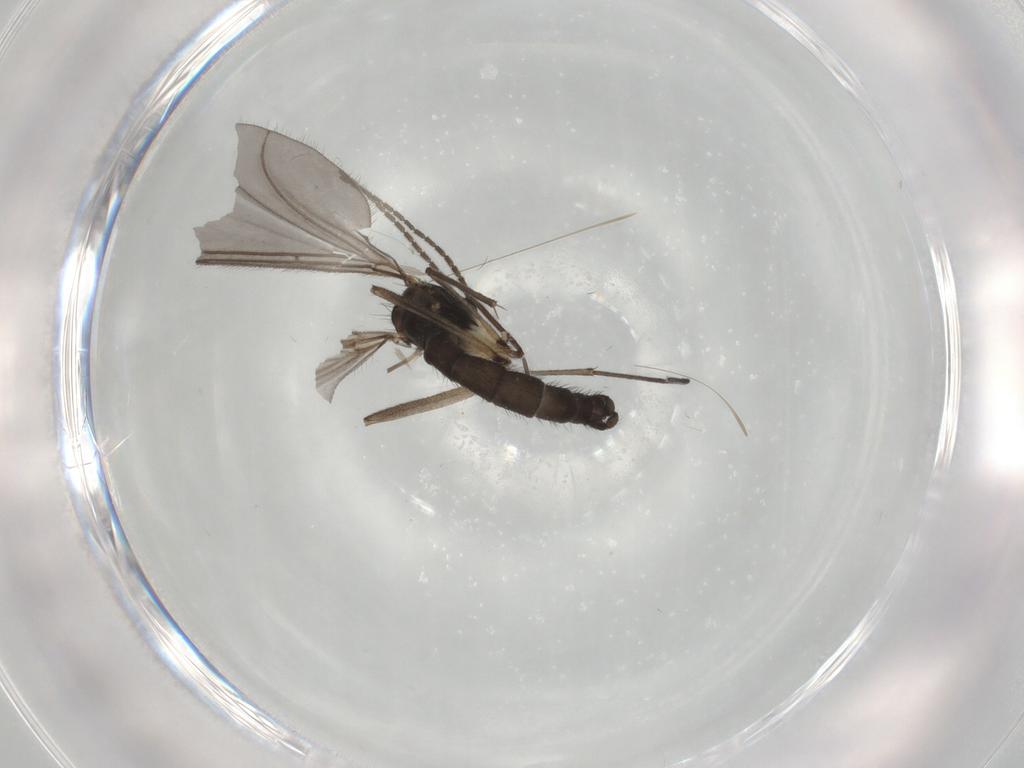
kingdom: Animalia
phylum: Arthropoda
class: Insecta
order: Diptera
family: Sciaridae
